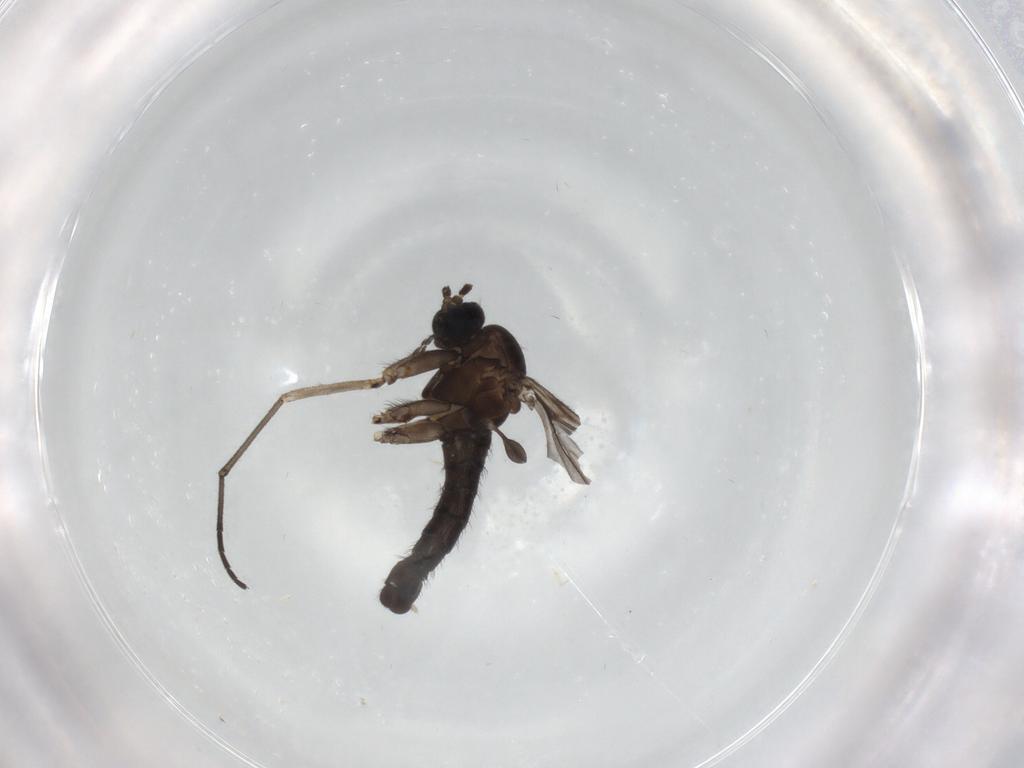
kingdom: Animalia
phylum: Arthropoda
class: Insecta
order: Diptera
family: Sciaridae
